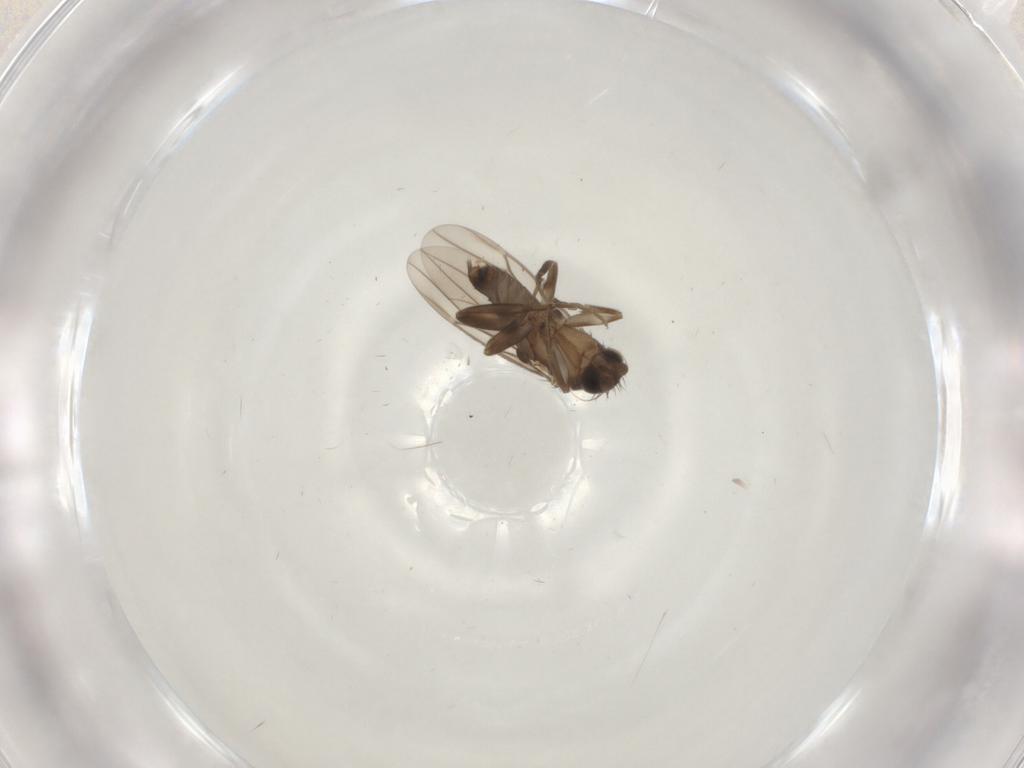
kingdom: Animalia
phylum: Arthropoda
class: Insecta
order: Diptera
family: Phoridae
